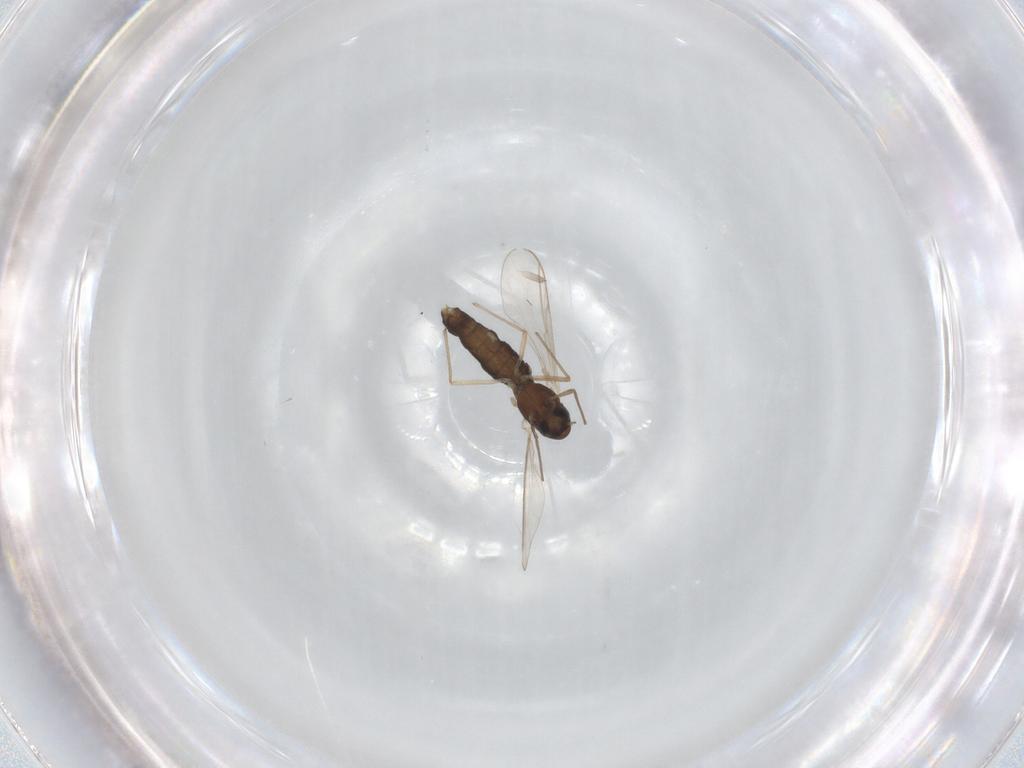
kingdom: Animalia
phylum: Arthropoda
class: Insecta
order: Diptera
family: Chironomidae
